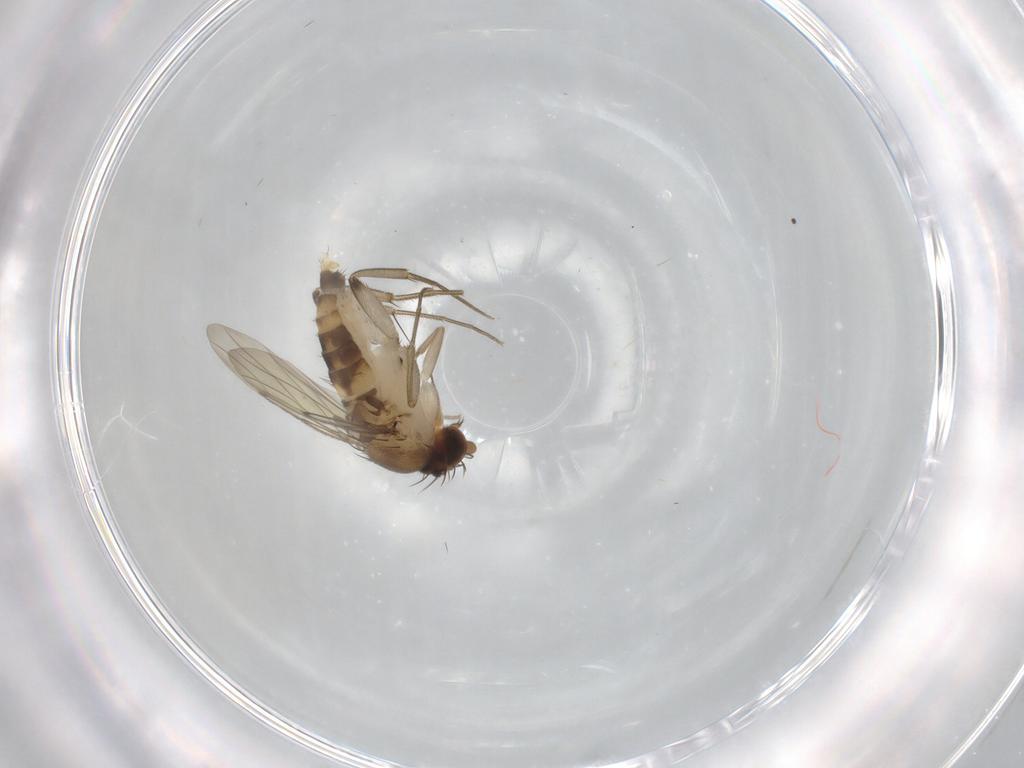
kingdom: Animalia
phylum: Arthropoda
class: Insecta
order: Diptera
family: Phoridae
